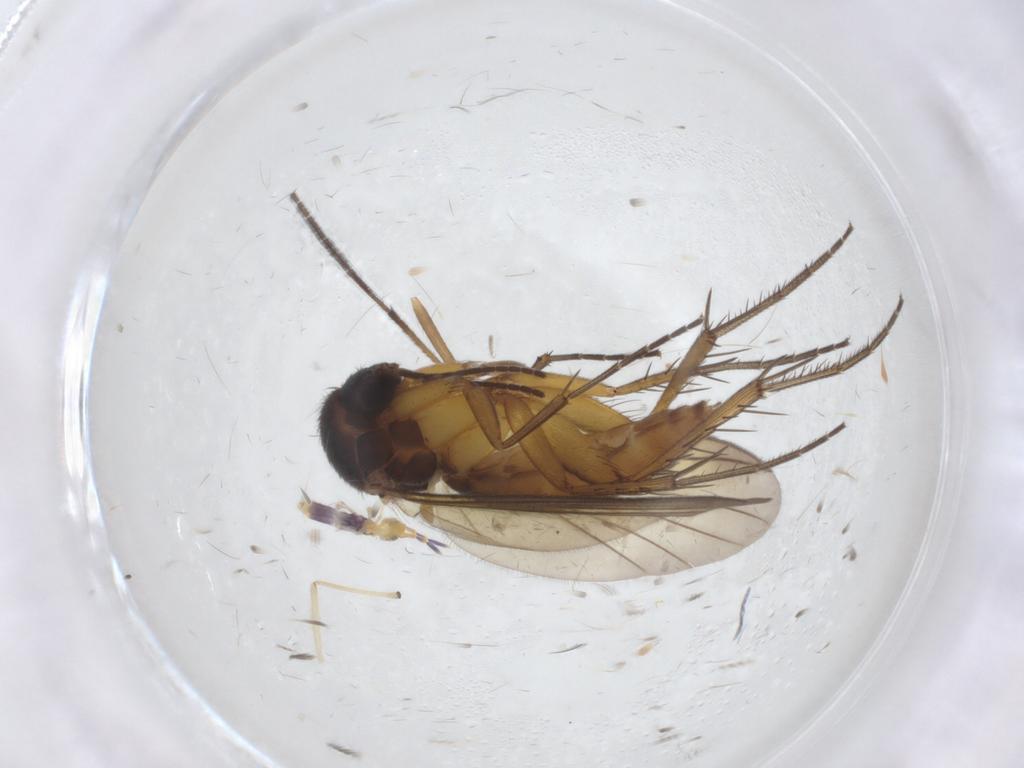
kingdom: Animalia
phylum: Arthropoda
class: Insecta
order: Diptera
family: Mycetophilidae
